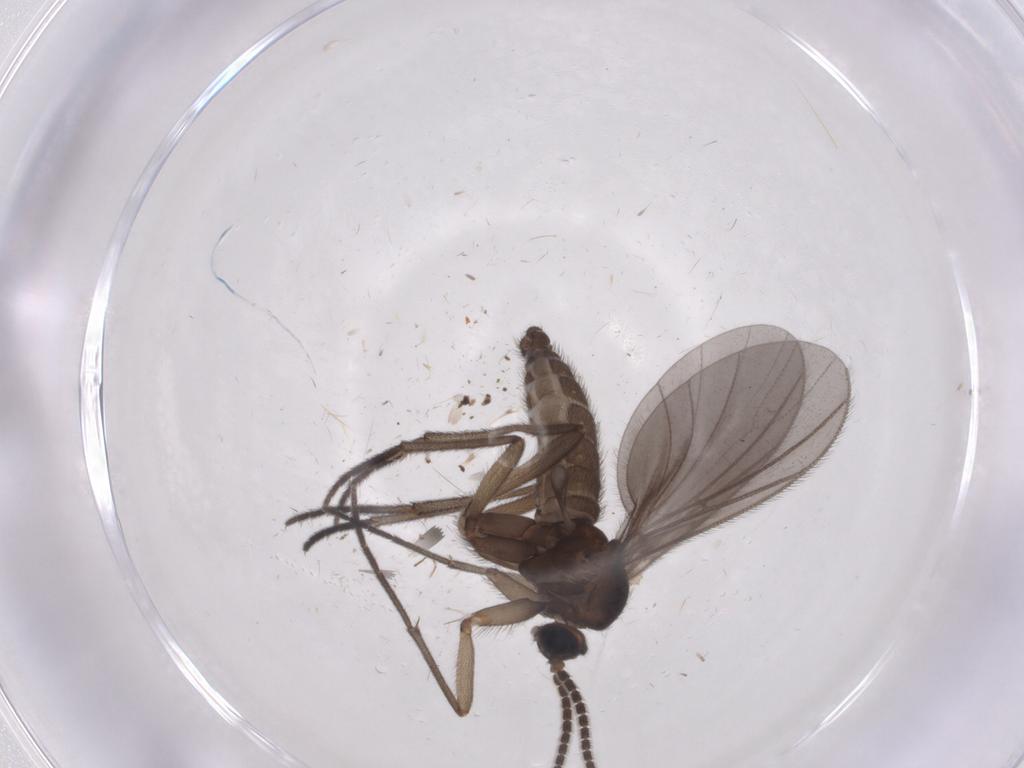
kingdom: Animalia
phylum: Arthropoda
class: Insecta
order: Diptera
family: Sciaridae
